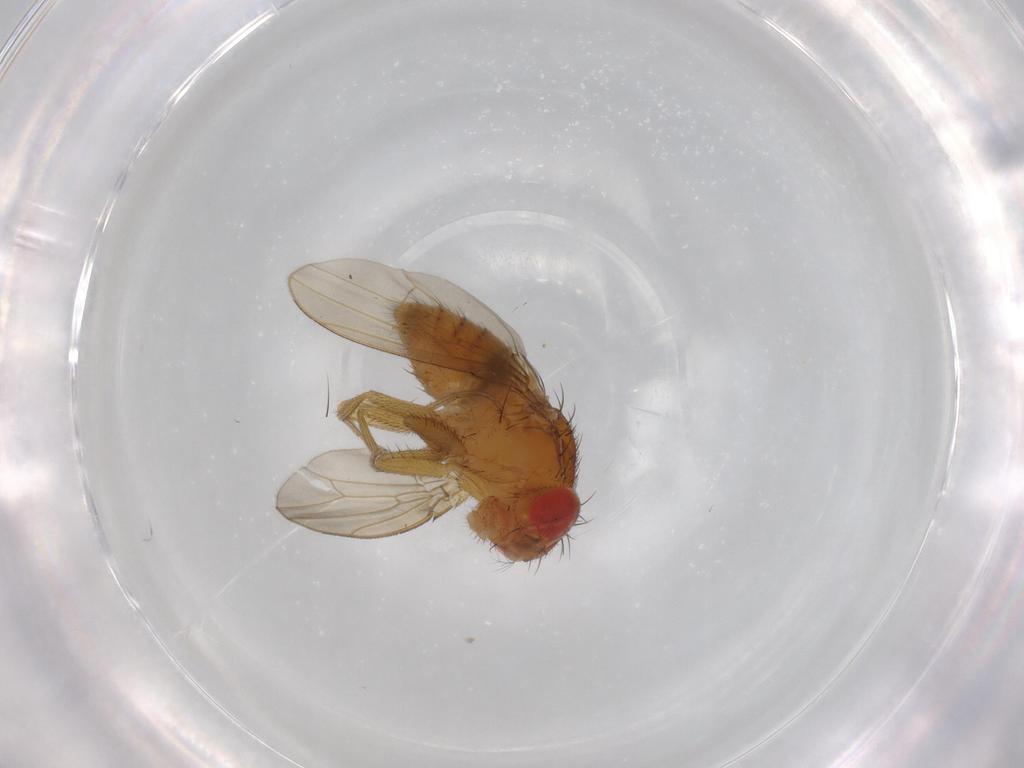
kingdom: Animalia
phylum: Arthropoda
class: Insecta
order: Diptera
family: Drosophilidae
